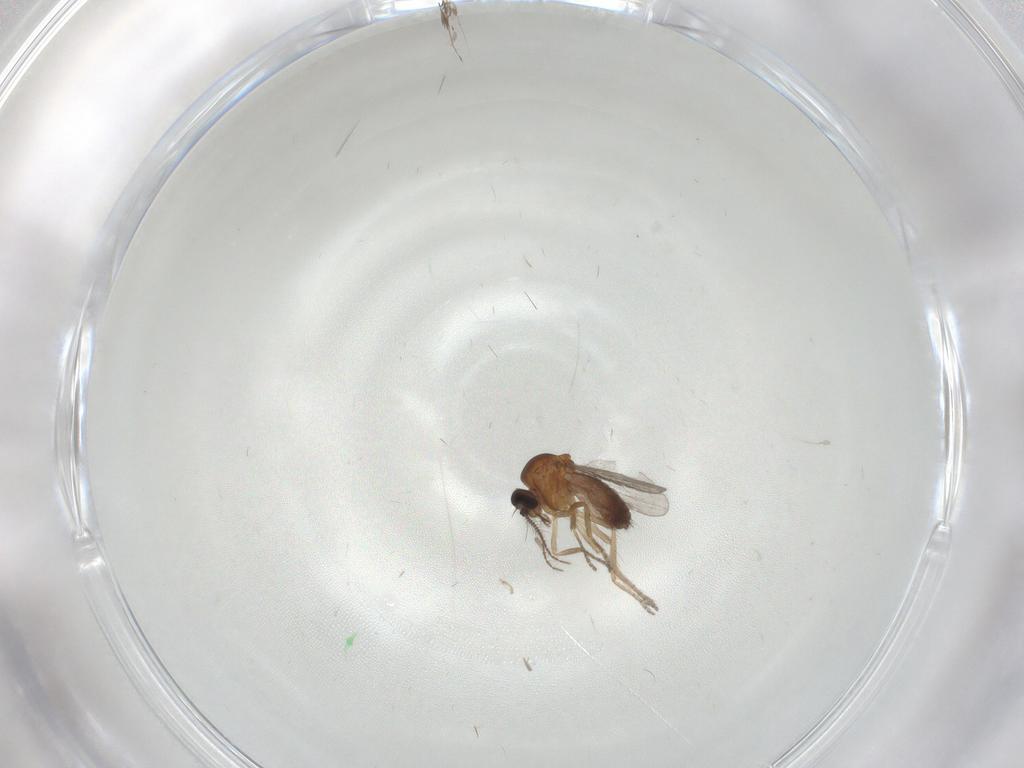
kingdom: Animalia
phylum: Arthropoda
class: Insecta
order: Diptera
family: Ceratopogonidae
